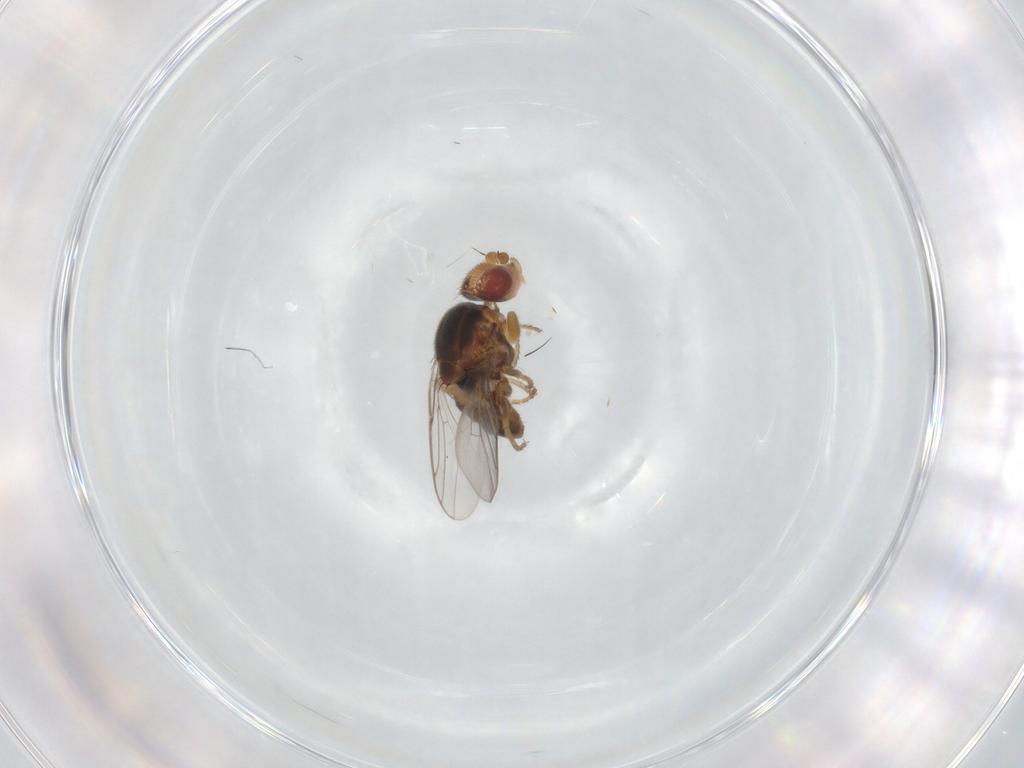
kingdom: Animalia
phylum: Arthropoda
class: Insecta
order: Diptera
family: Chloropidae
